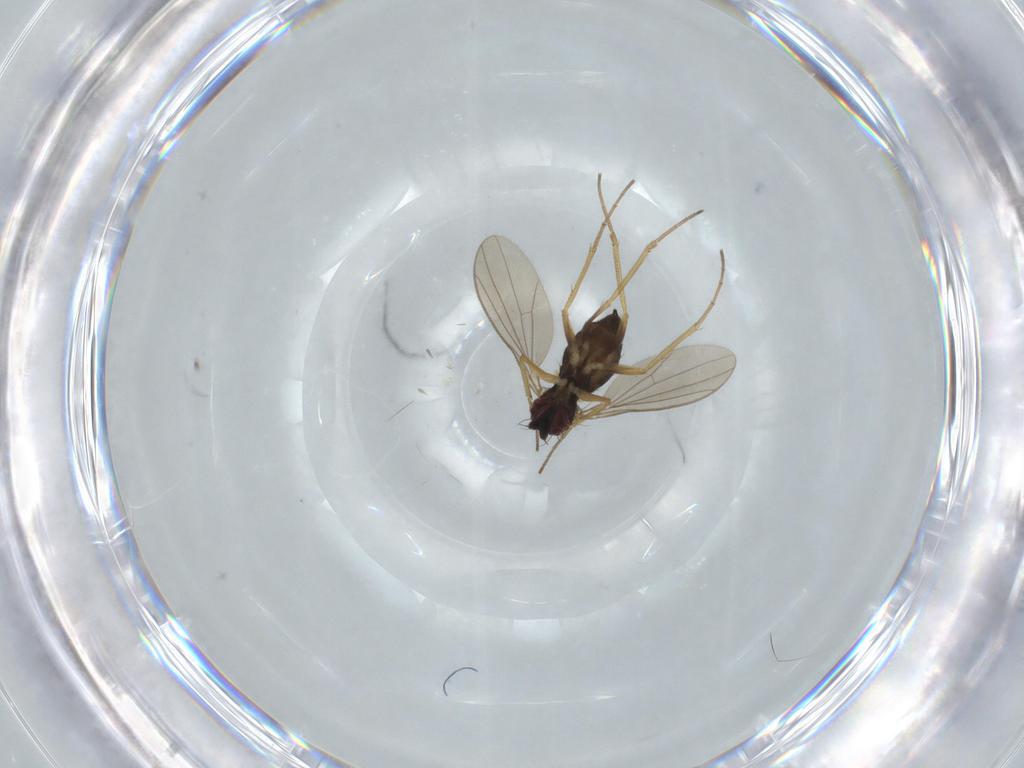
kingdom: Animalia
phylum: Arthropoda
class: Insecta
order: Diptera
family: Dolichopodidae
